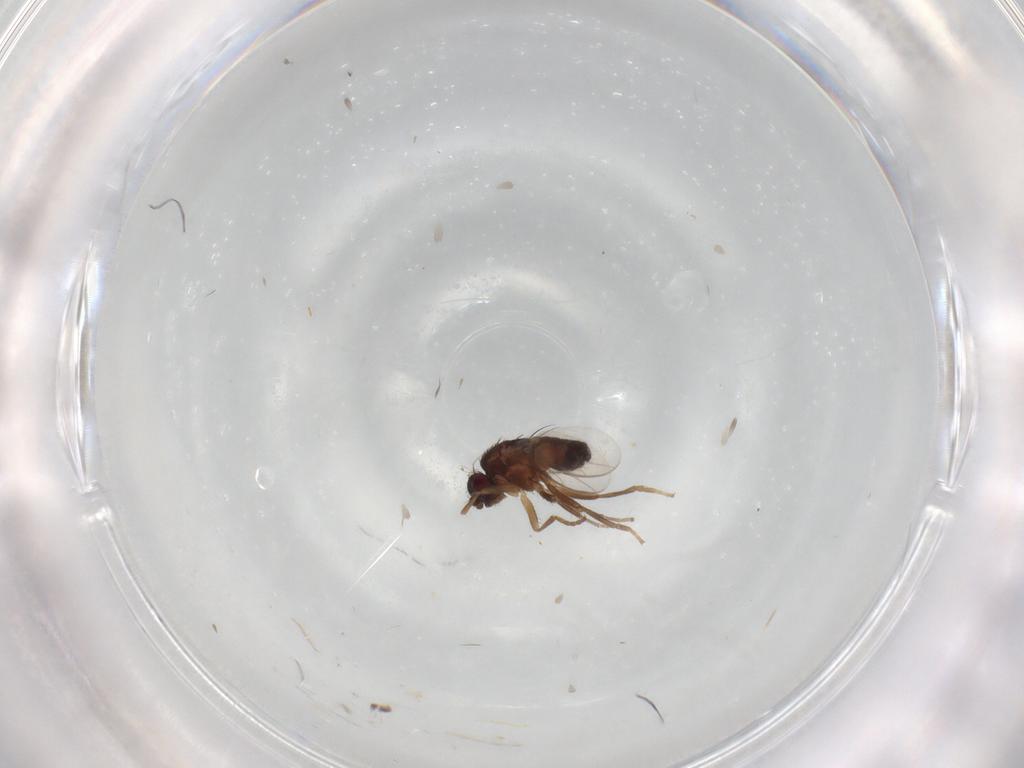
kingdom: Animalia
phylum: Arthropoda
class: Insecta
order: Diptera
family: Sphaeroceridae
